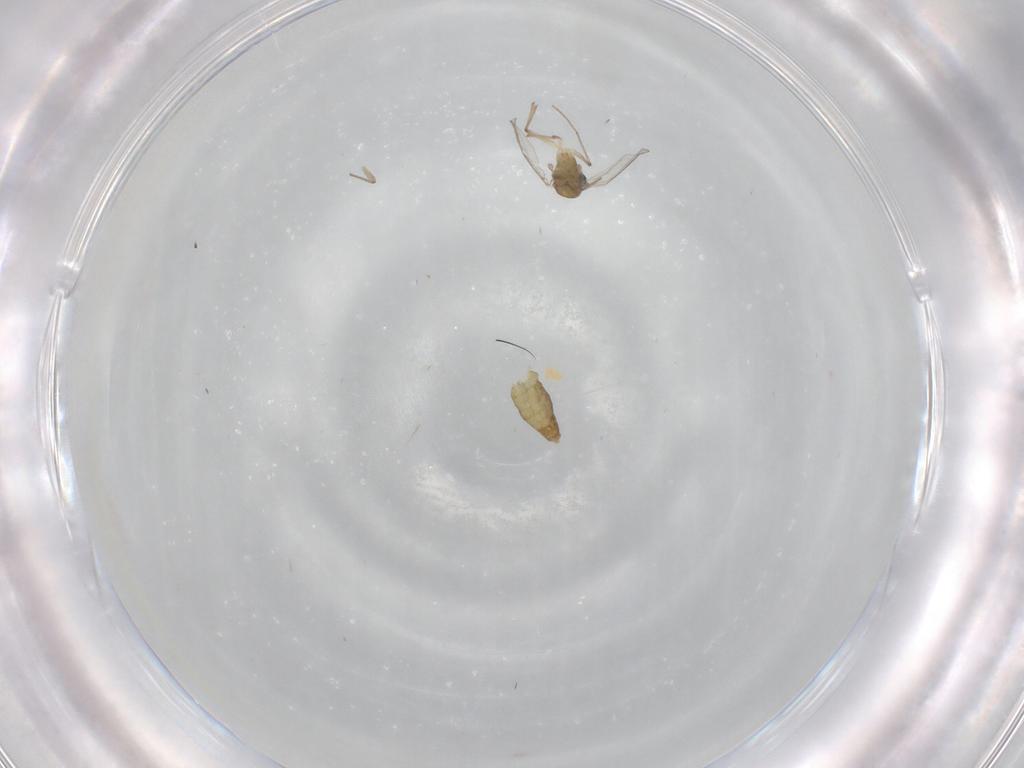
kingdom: Animalia
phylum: Arthropoda
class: Insecta
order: Diptera
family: Chironomidae
